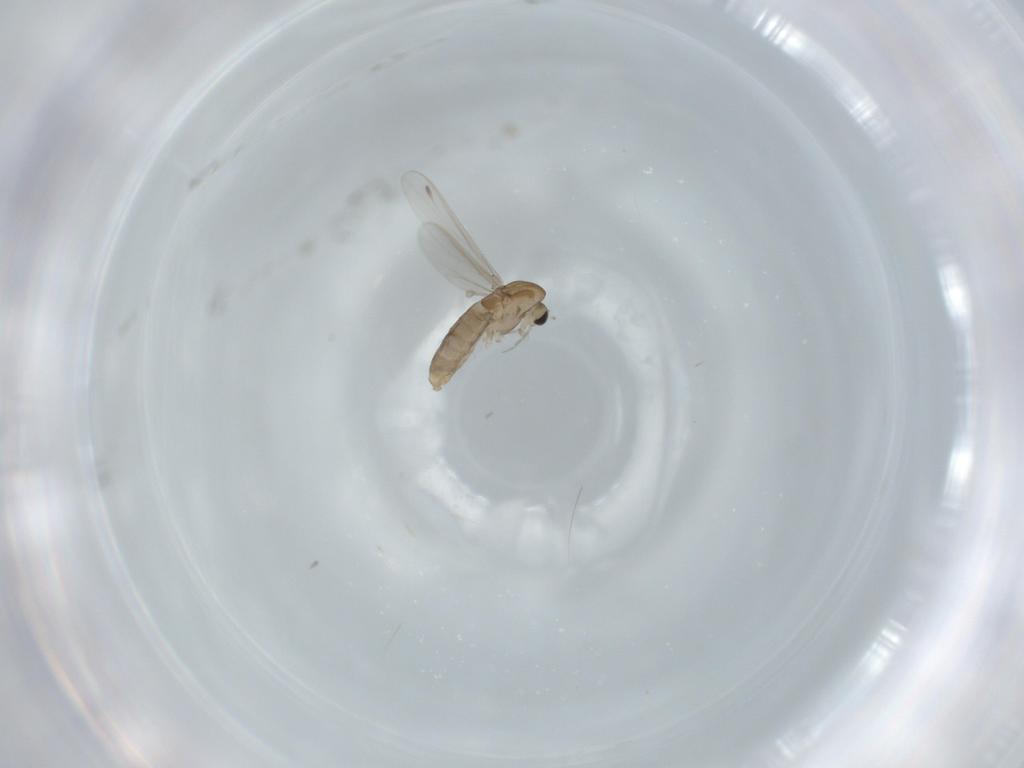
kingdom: Animalia
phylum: Arthropoda
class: Insecta
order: Diptera
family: Chironomidae
